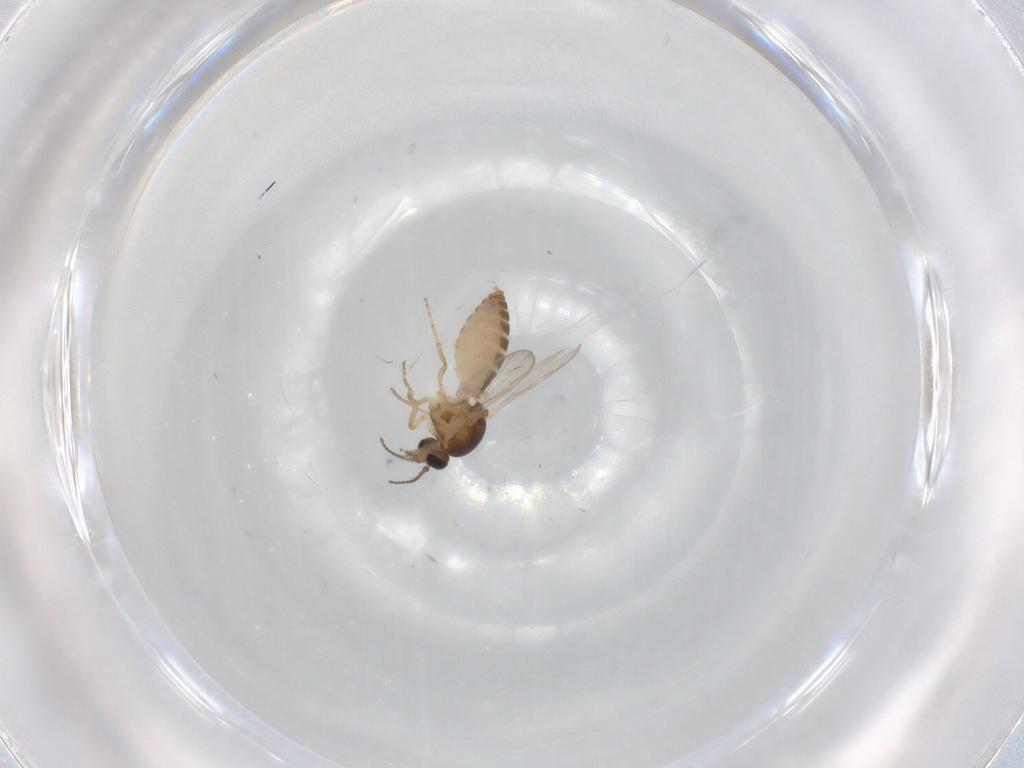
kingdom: Animalia
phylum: Arthropoda
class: Insecta
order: Diptera
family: Ceratopogonidae
